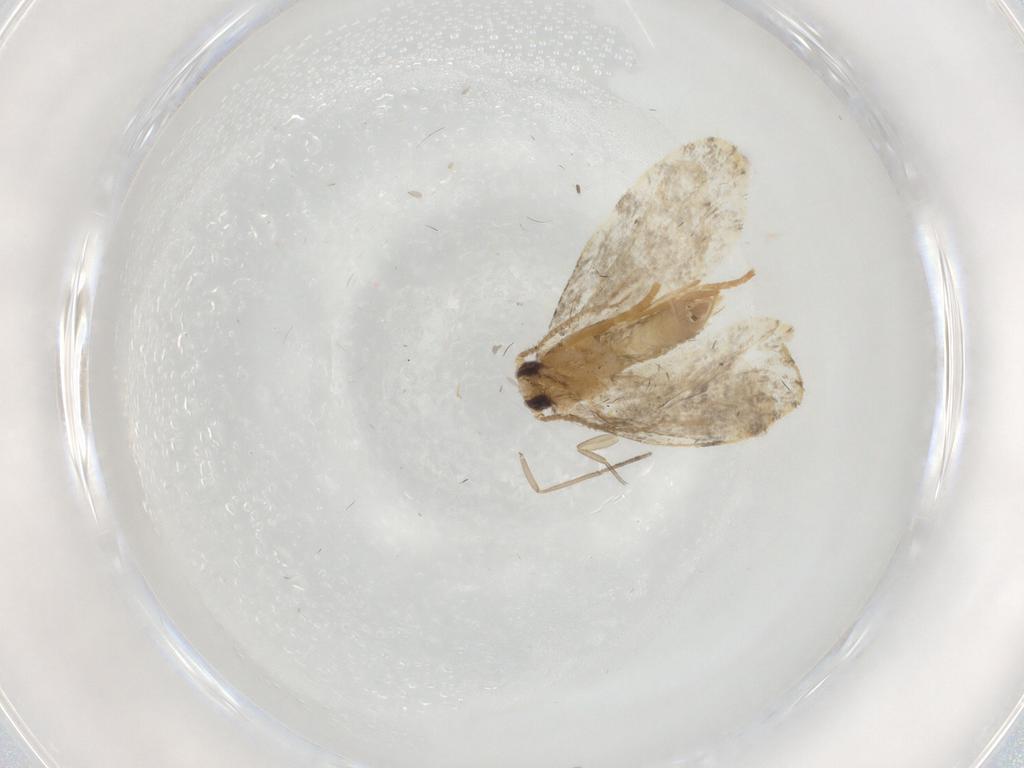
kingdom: Animalia
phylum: Arthropoda
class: Insecta
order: Lepidoptera
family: Psychidae
